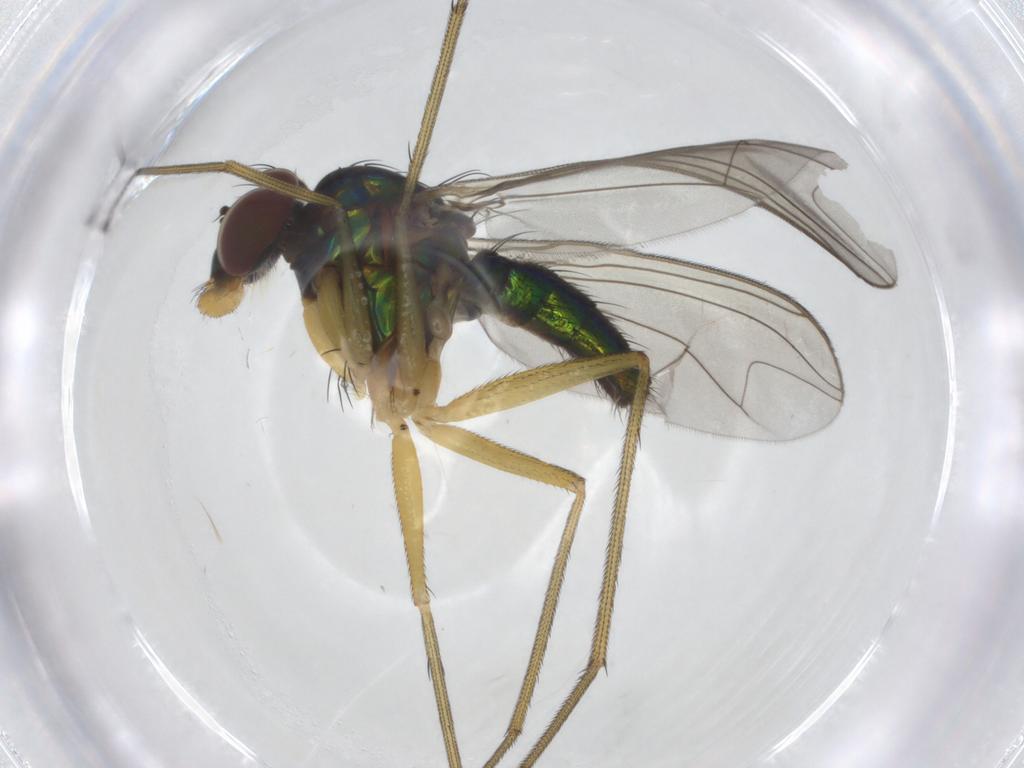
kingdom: Animalia
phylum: Arthropoda
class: Insecta
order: Diptera
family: Dolichopodidae
